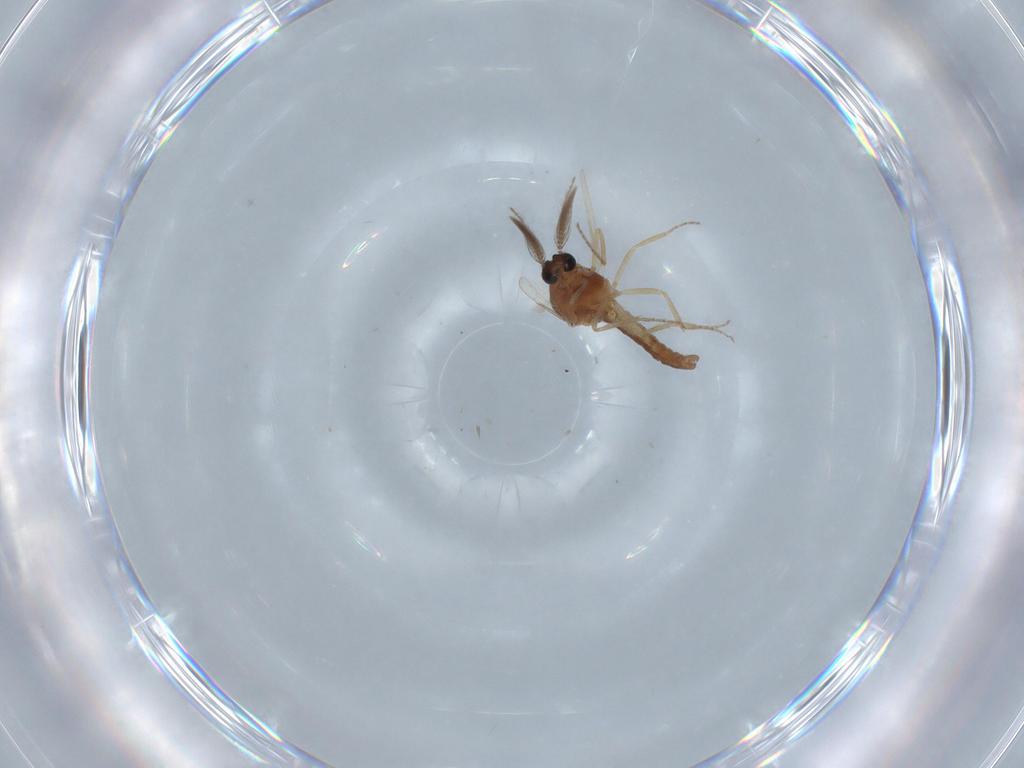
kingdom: Animalia
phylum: Arthropoda
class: Insecta
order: Diptera
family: Ceratopogonidae
